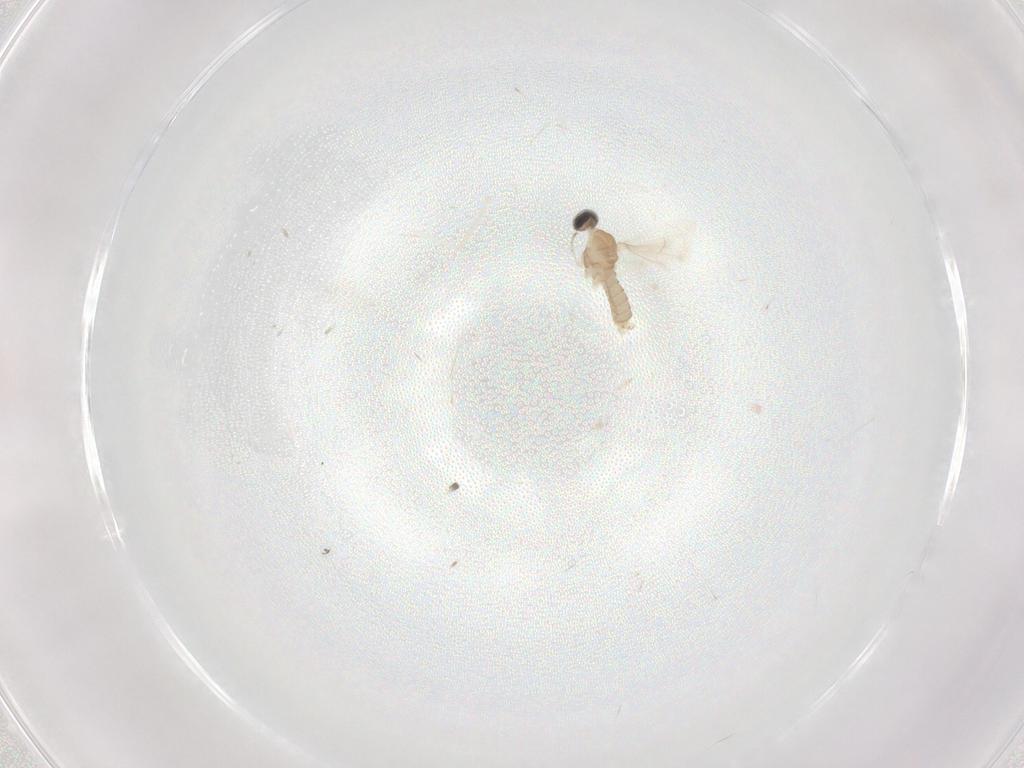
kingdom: Animalia
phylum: Arthropoda
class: Insecta
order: Diptera
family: Cecidomyiidae
